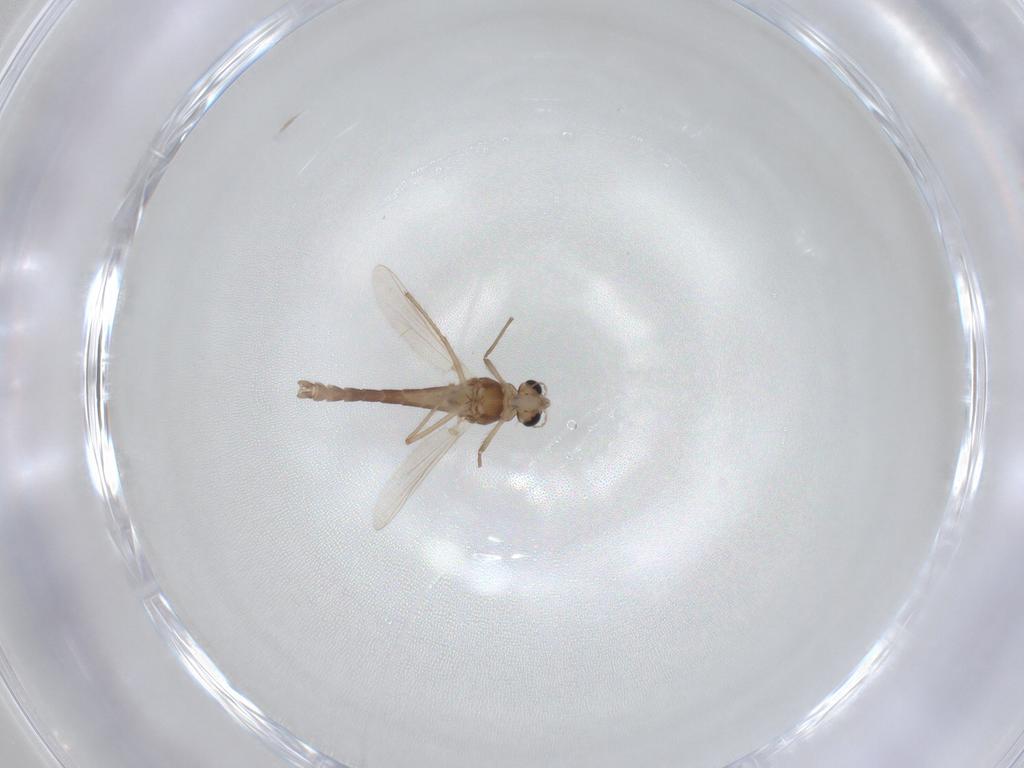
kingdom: Animalia
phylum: Arthropoda
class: Insecta
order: Diptera
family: Chironomidae
